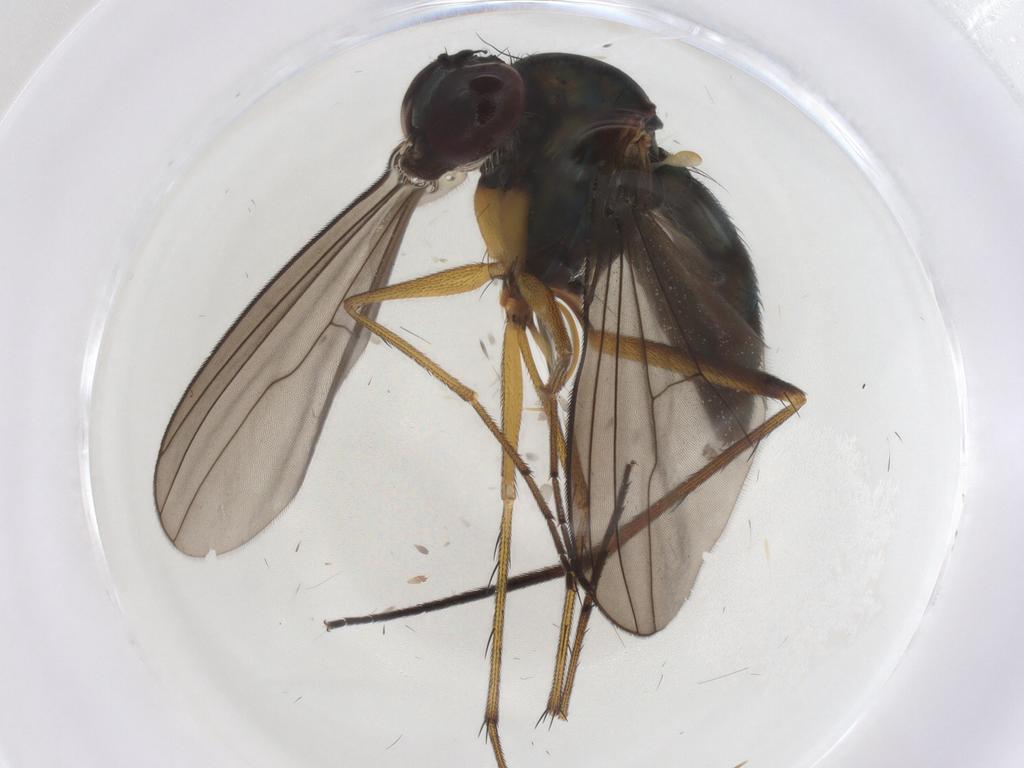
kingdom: Animalia
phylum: Arthropoda
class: Insecta
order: Diptera
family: Dolichopodidae
